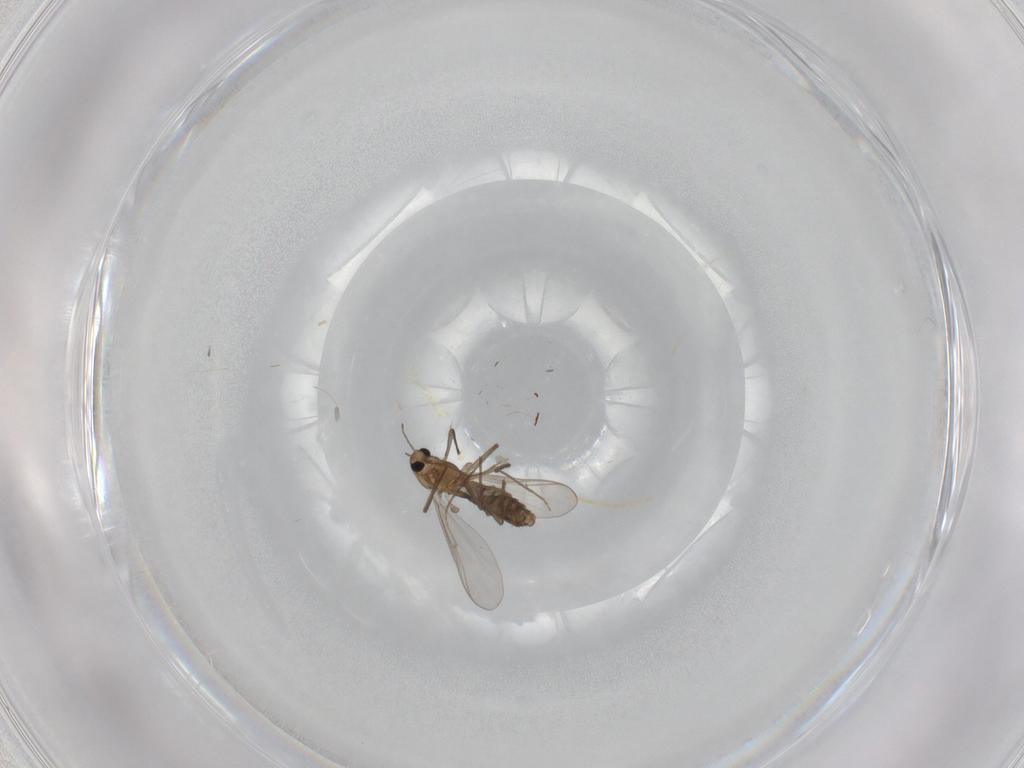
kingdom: Animalia
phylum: Arthropoda
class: Insecta
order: Diptera
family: Chironomidae
